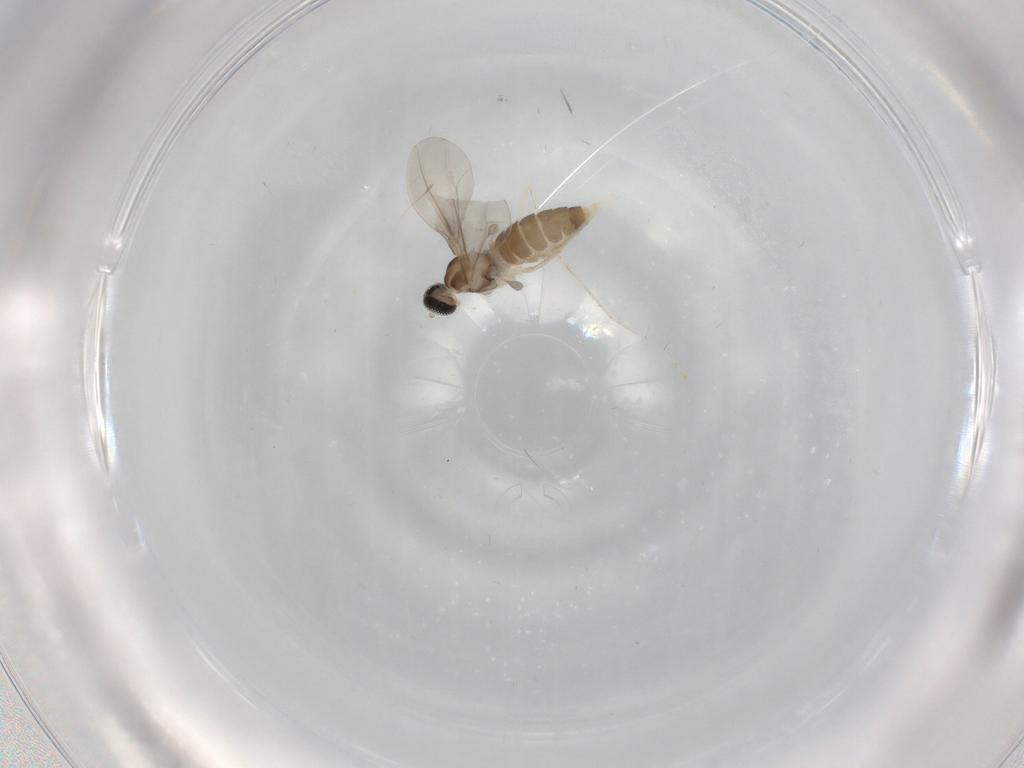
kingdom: Animalia
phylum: Arthropoda
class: Insecta
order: Diptera
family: Cecidomyiidae
